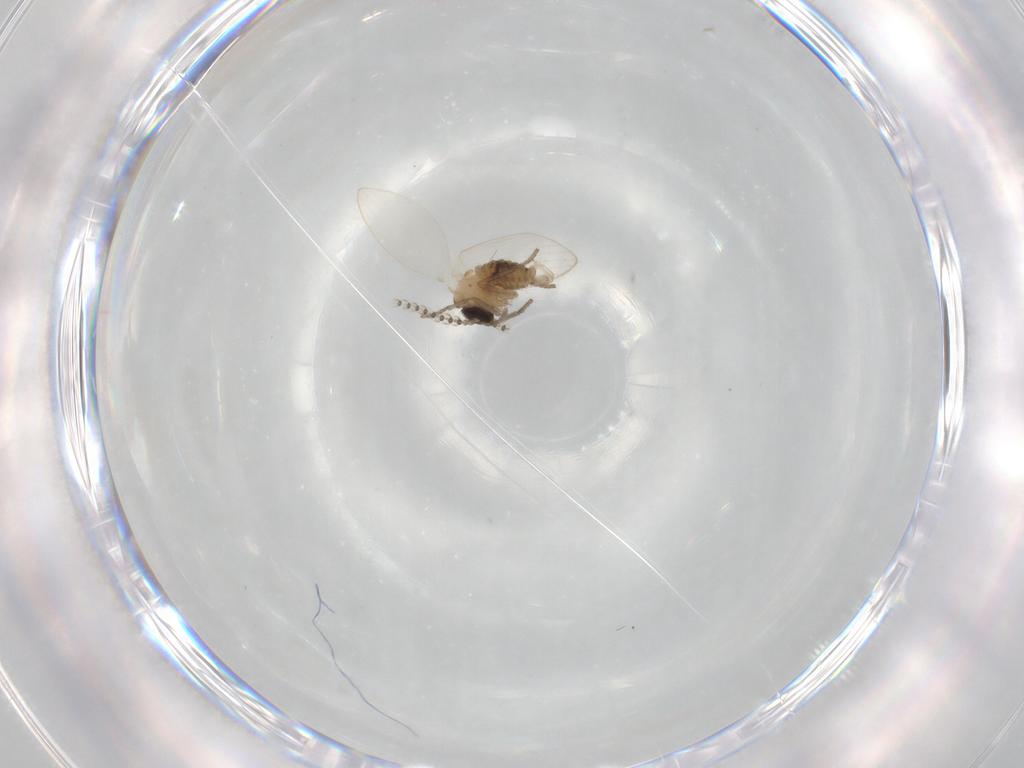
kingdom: Animalia
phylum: Arthropoda
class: Insecta
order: Diptera
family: Psychodidae
